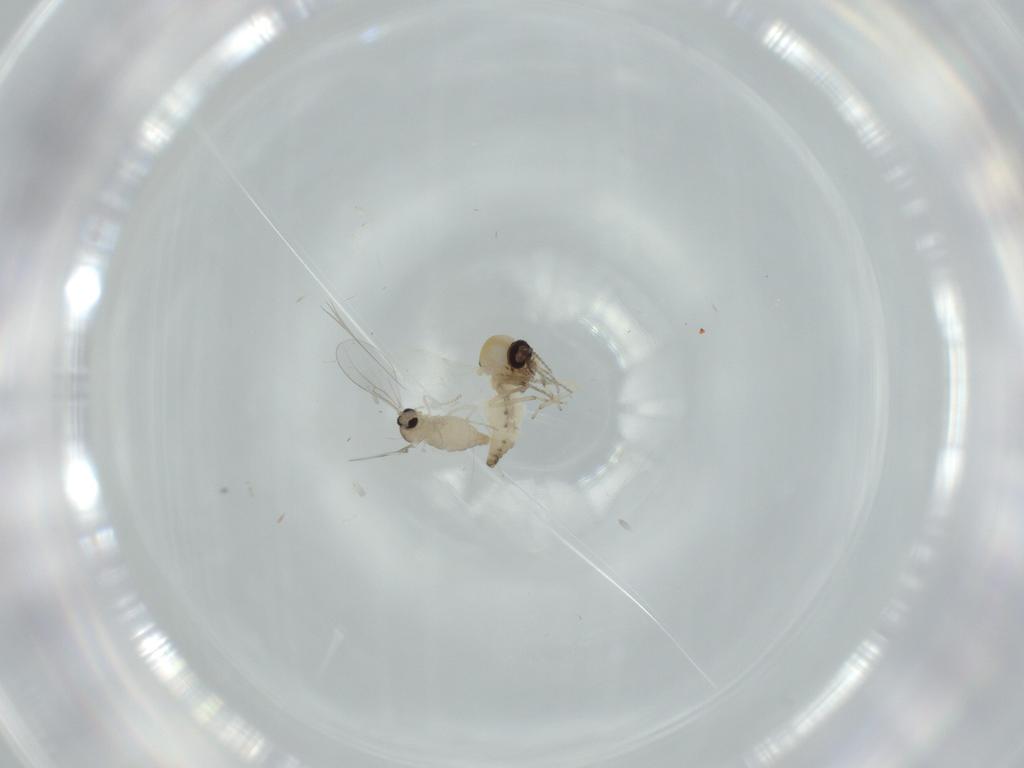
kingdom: Animalia
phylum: Arthropoda
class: Insecta
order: Diptera
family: Cecidomyiidae
